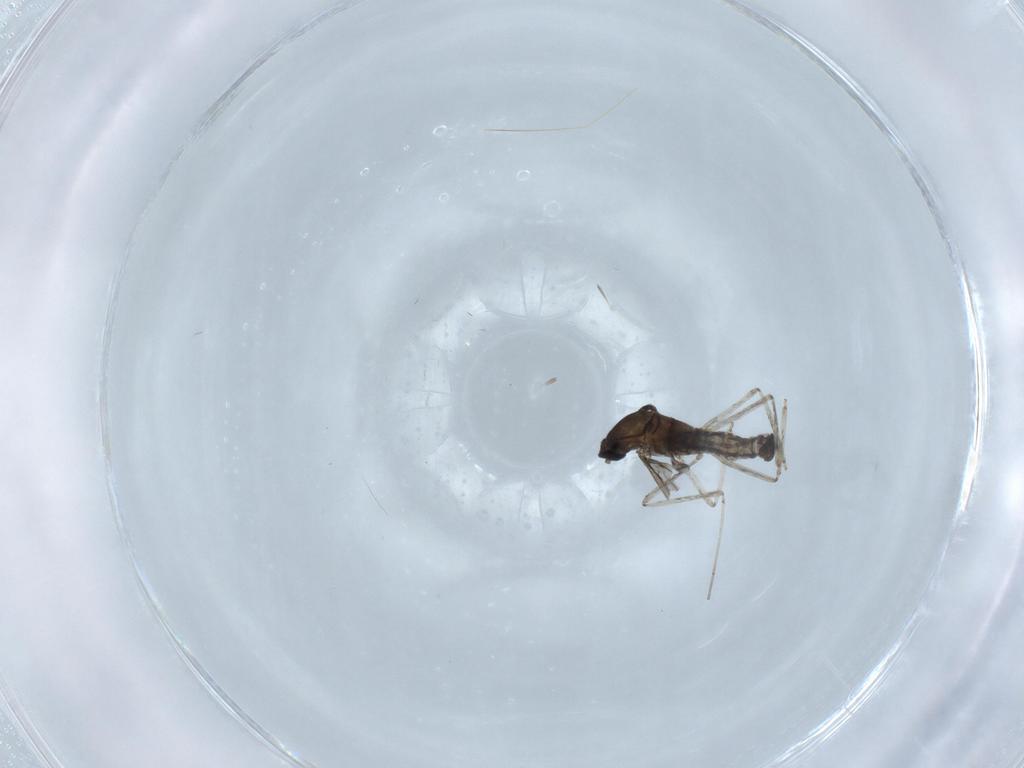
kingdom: Animalia
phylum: Arthropoda
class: Insecta
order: Diptera
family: Cecidomyiidae
